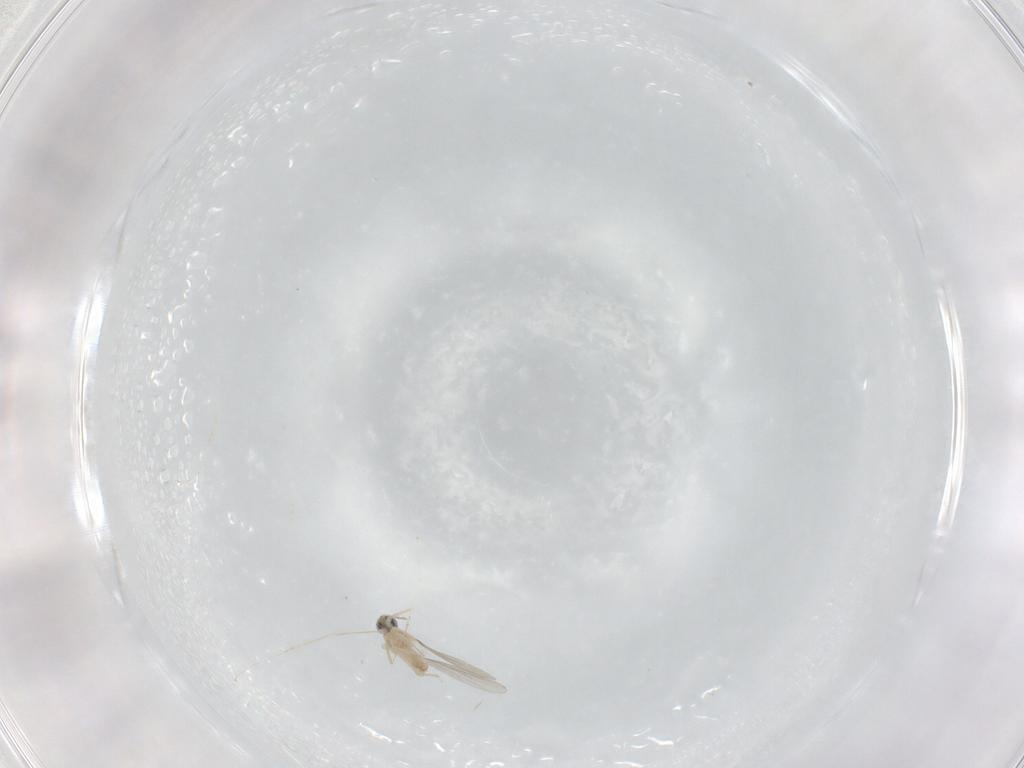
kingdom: Animalia
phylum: Arthropoda
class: Insecta
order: Diptera
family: Cecidomyiidae
